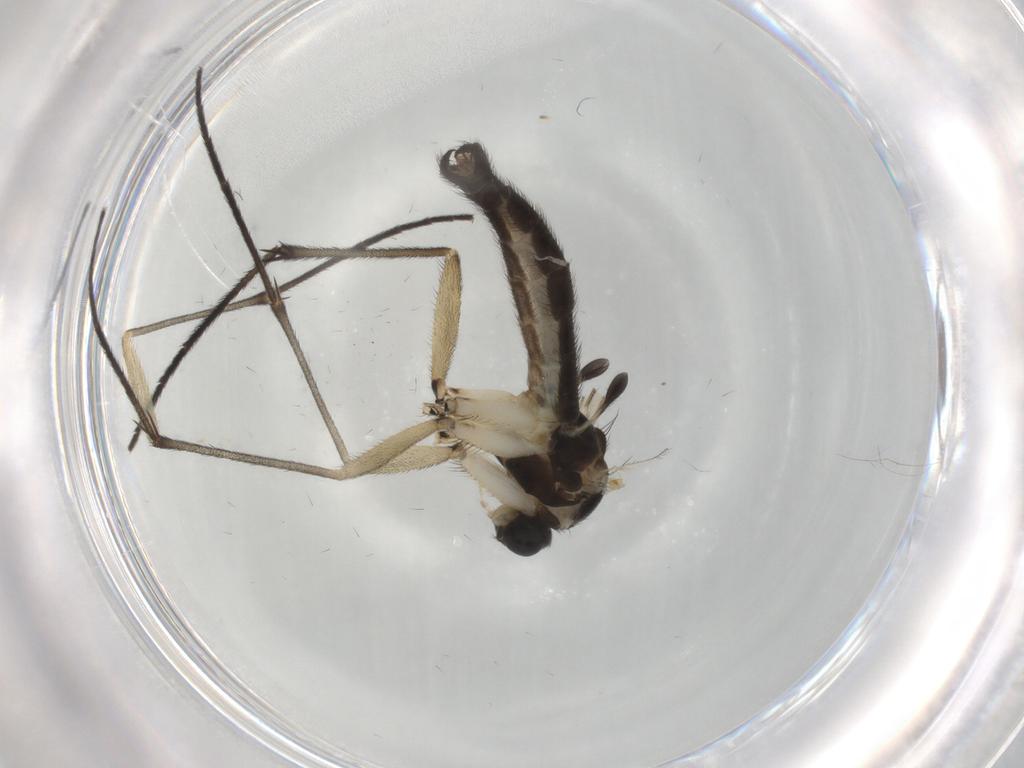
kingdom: Animalia
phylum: Arthropoda
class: Insecta
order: Diptera
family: Sciaridae
